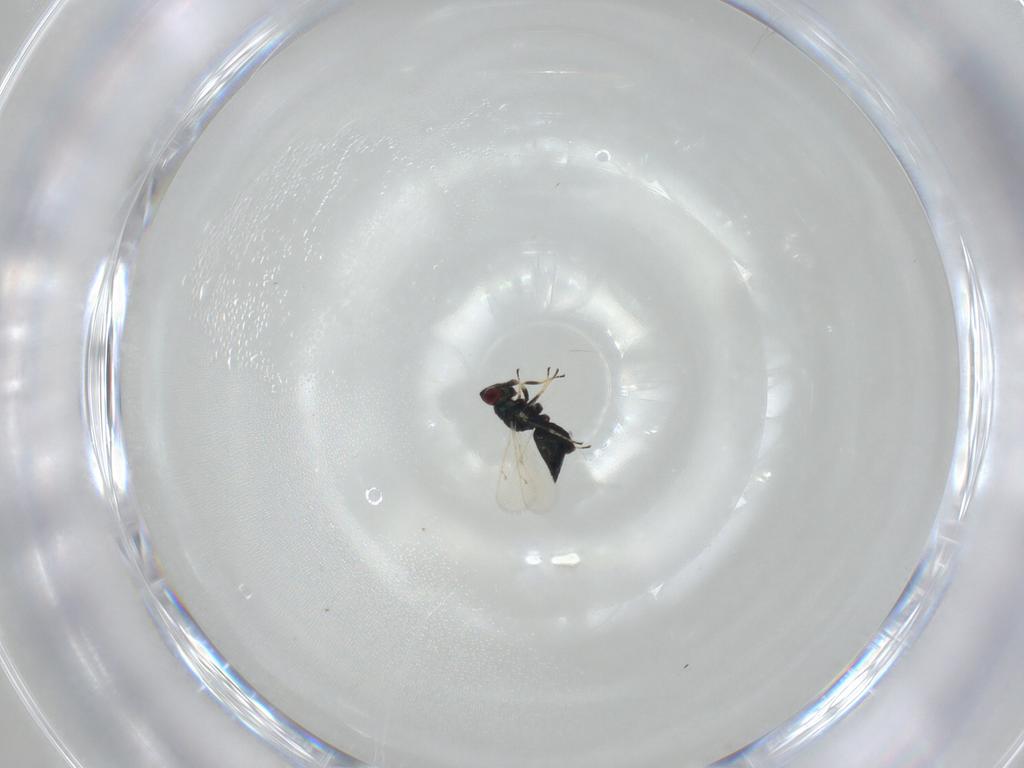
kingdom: Animalia
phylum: Arthropoda
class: Insecta
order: Hymenoptera
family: Tetracampidae
